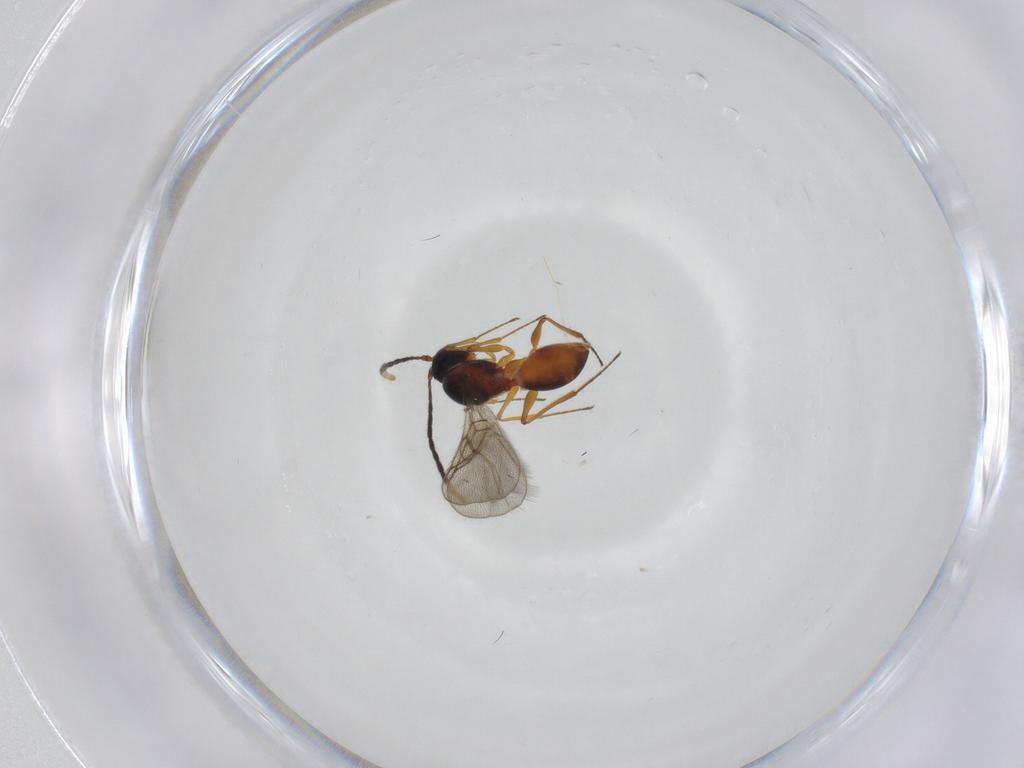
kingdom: Animalia
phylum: Arthropoda
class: Insecta
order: Hymenoptera
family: Figitidae
